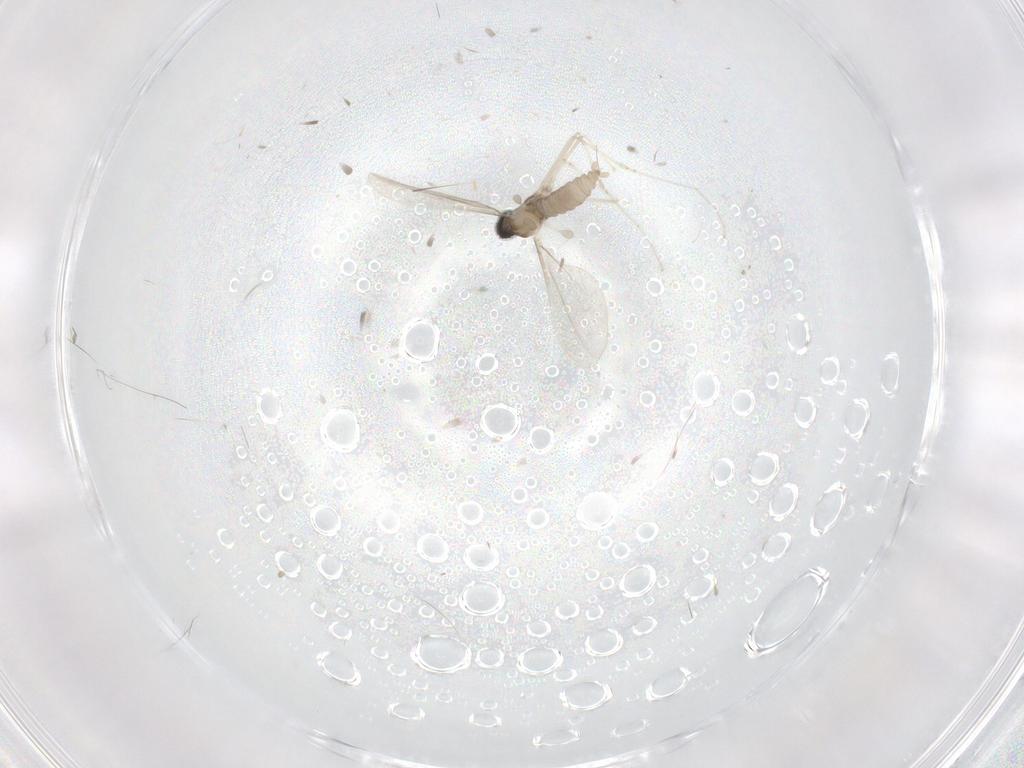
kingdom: Animalia
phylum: Arthropoda
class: Insecta
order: Diptera
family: Cecidomyiidae
